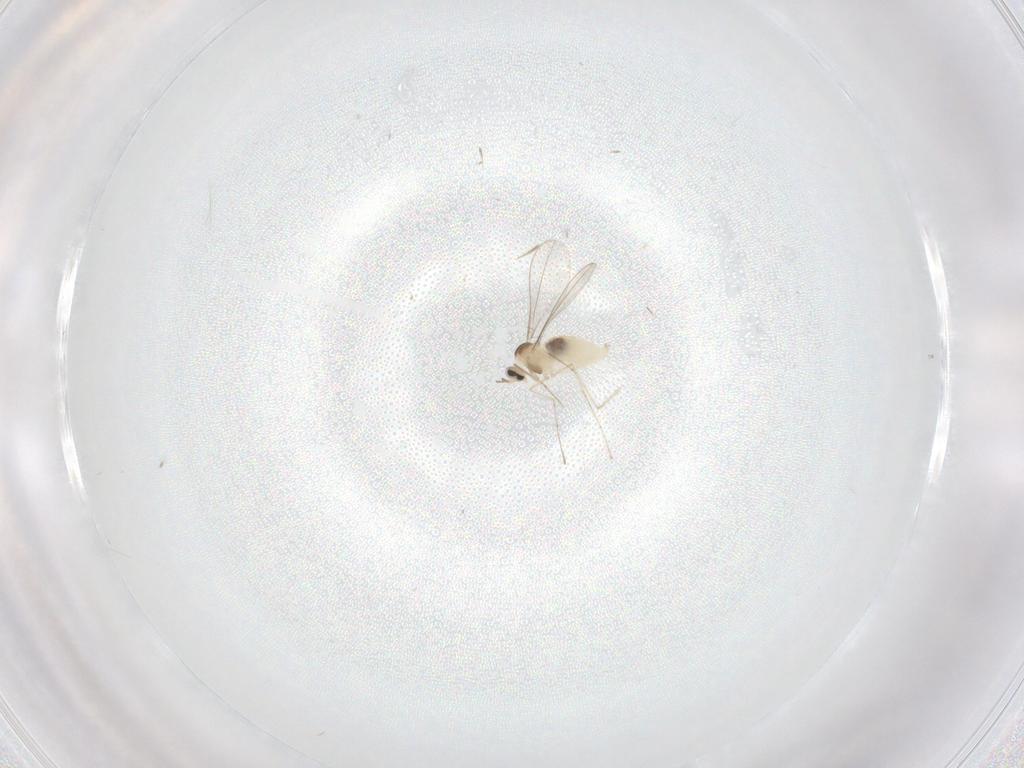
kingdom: Animalia
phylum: Arthropoda
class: Insecta
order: Diptera
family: Cecidomyiidae
